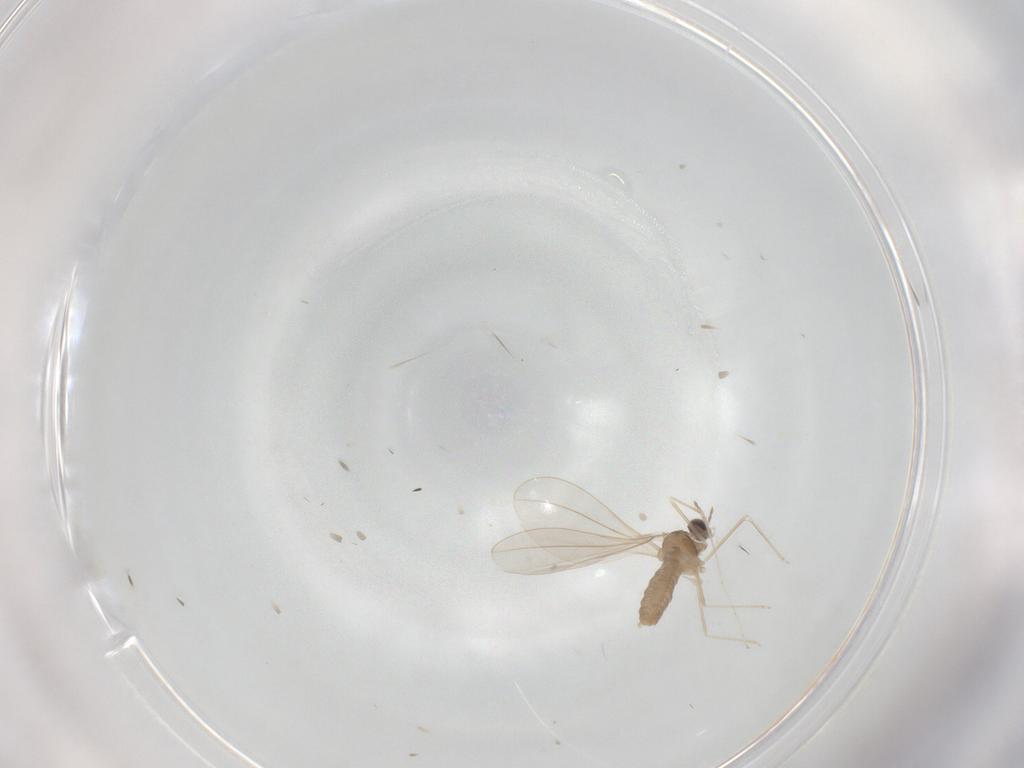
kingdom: Animalia
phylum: Arthropoda
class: Insecta
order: Diptera
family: Cecidomyiidae
